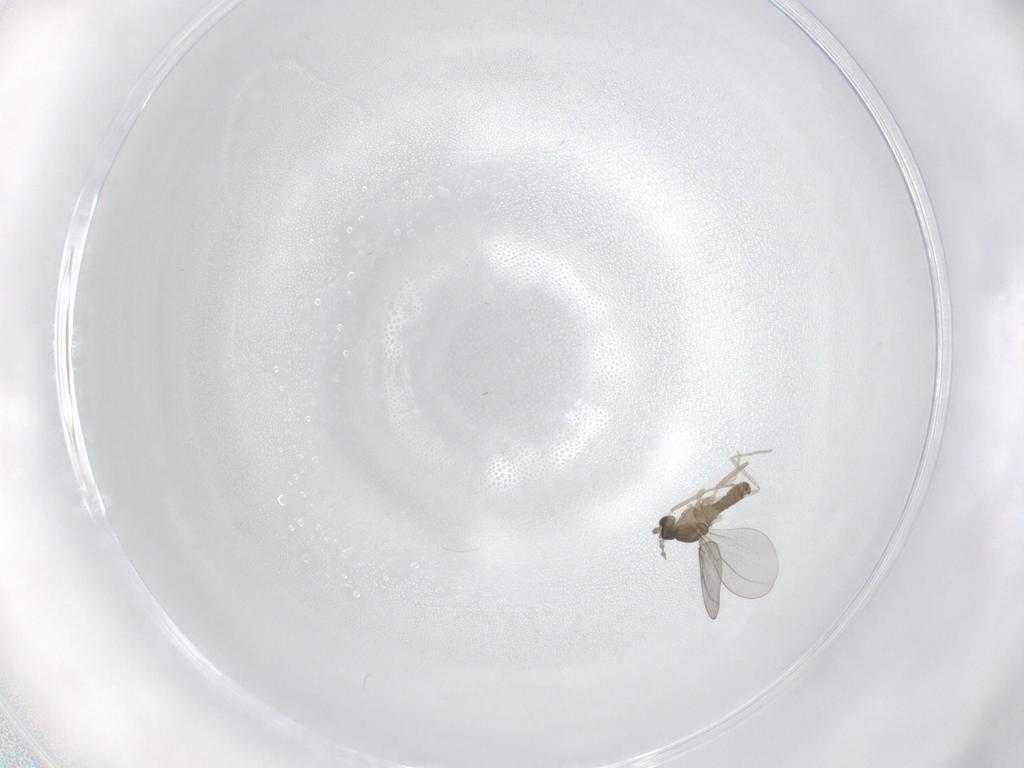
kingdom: Animalia
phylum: Arthropoda
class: Insecta
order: Diptera
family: Cecidomyiidae
